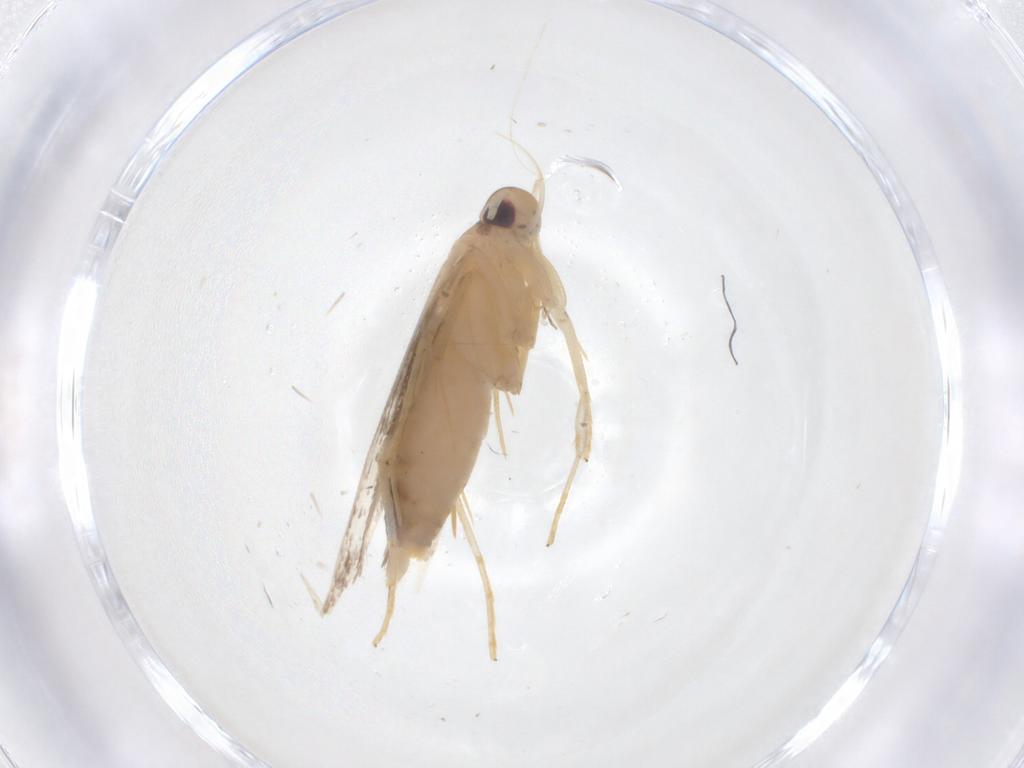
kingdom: Animalia
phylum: Arthropoda
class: Insecta
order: Lepidoptera
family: Cosmopterigidae
